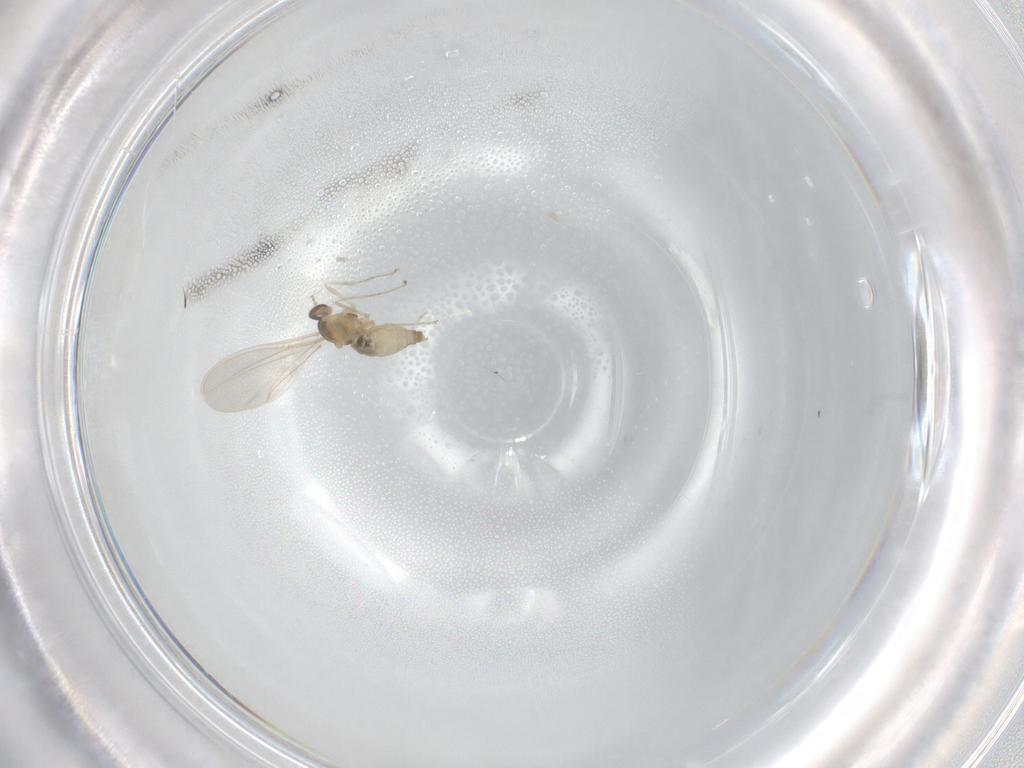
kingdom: Animalia
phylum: Arthropoda
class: Insecta
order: Diptera
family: Cecidomyiidae
